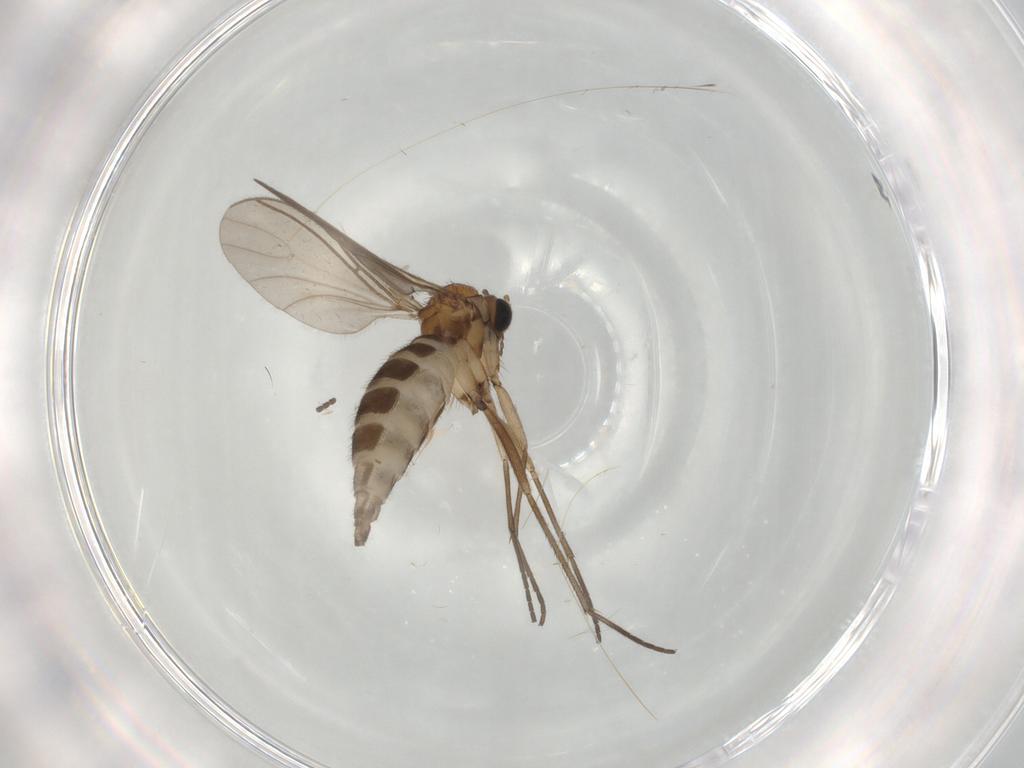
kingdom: Animalia
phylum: Arthropoda
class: Insecta
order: Diptera
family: Sciaridae
